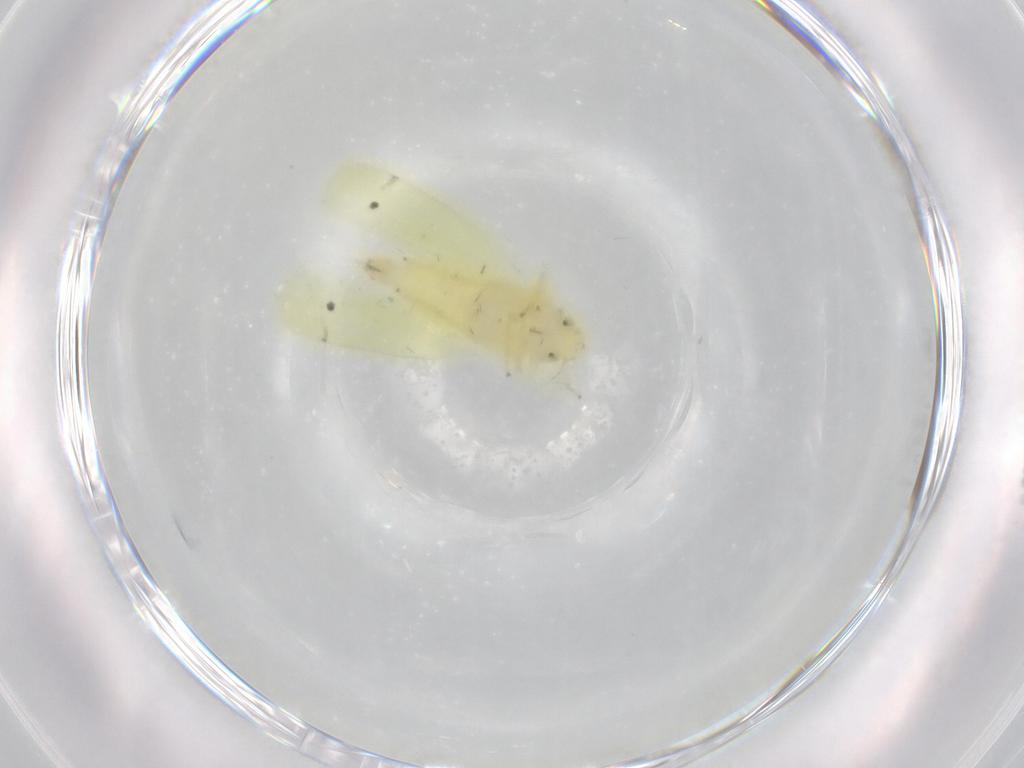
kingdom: Animalia
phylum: Arthropoda
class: Insecta
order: Hemiptera
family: Cicadellidae
